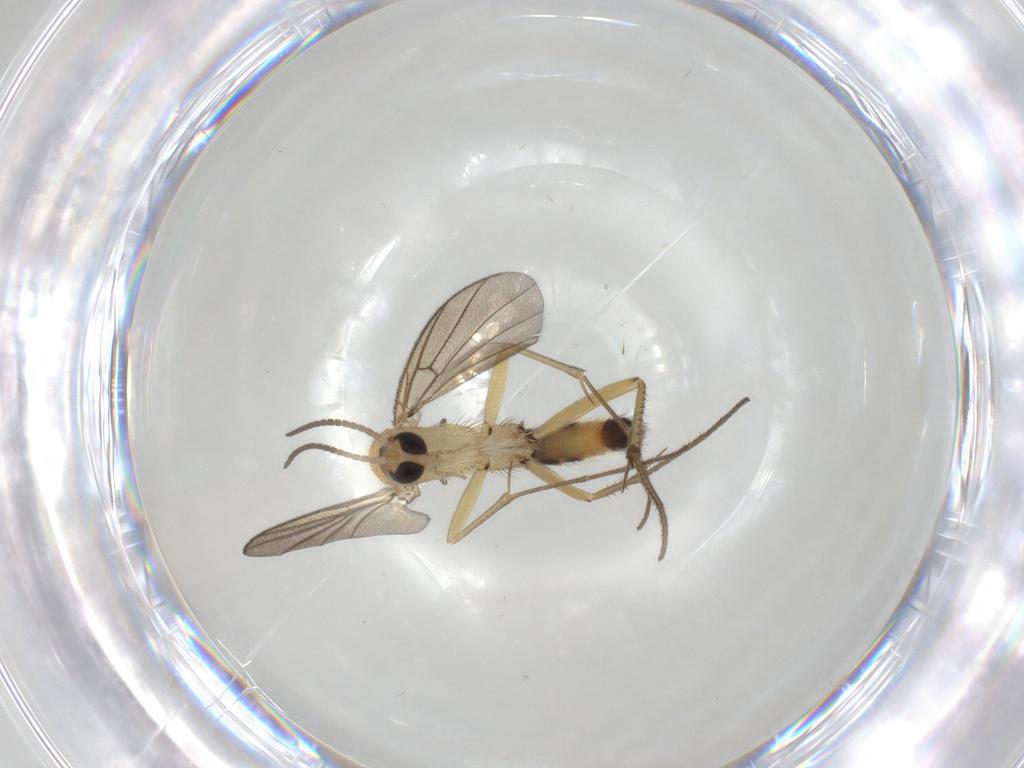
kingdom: Animalia
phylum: Arthropoda
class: Insecta
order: Diptera
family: Mycetophilidae
